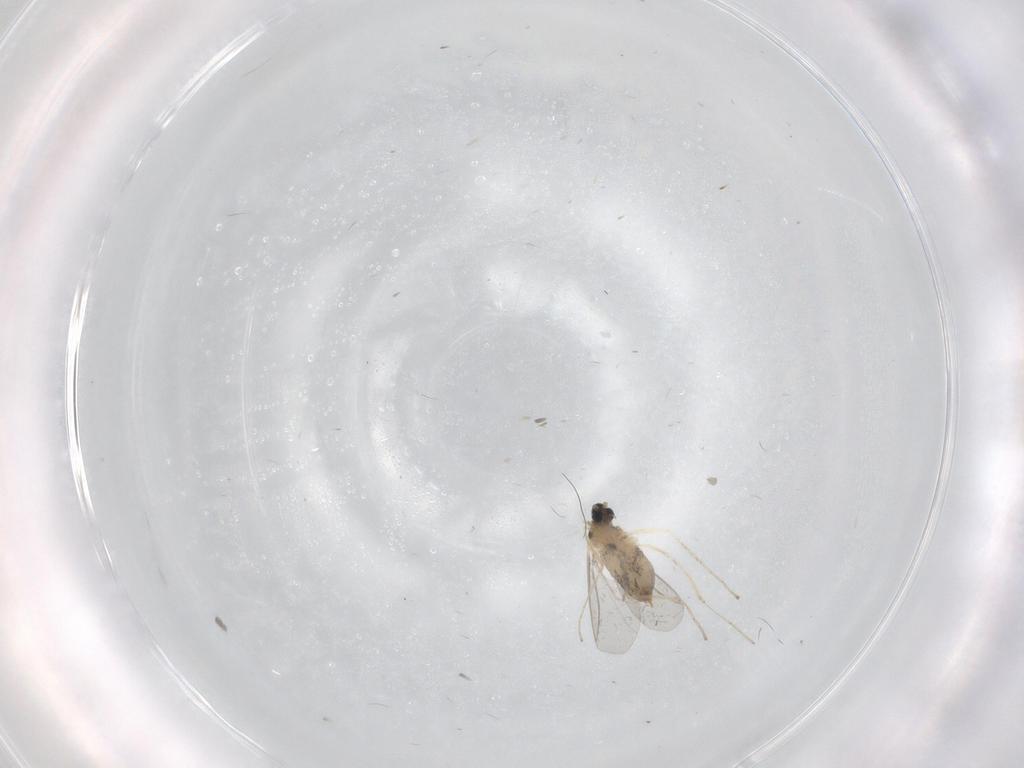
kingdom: Animalia
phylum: Arthropoda
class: Insecta
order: Diptera
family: Cecidomyiidae
